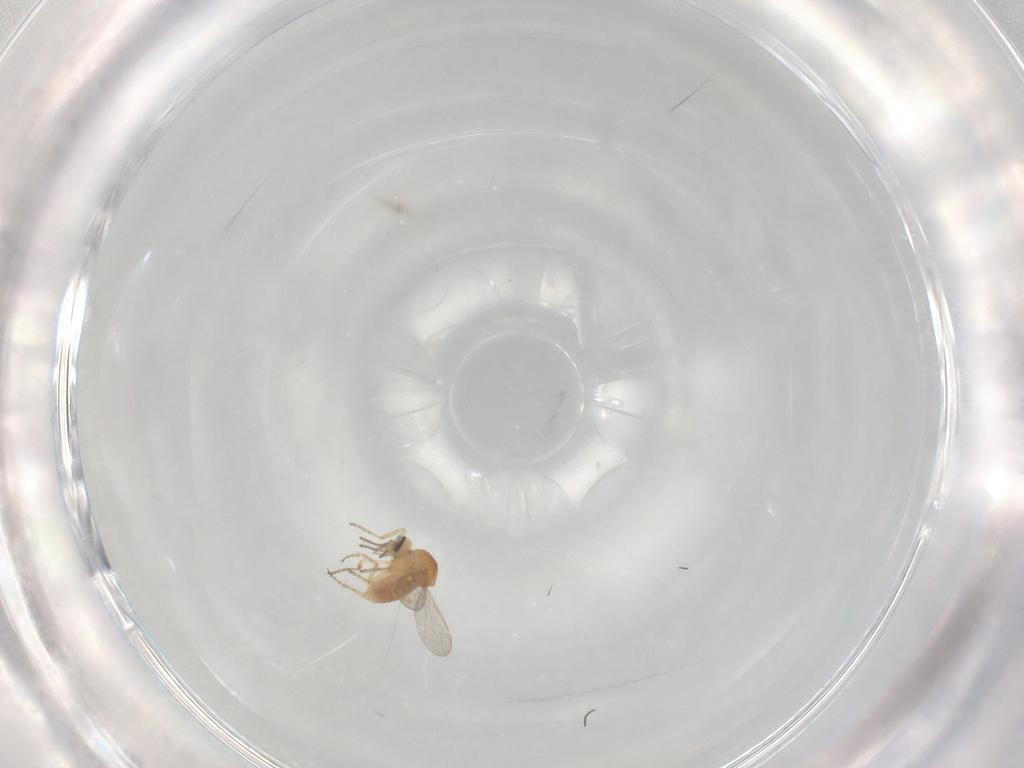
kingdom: Animalia
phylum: Arthropoda
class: Insecta
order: Diptera
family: Ceratopogonidae
